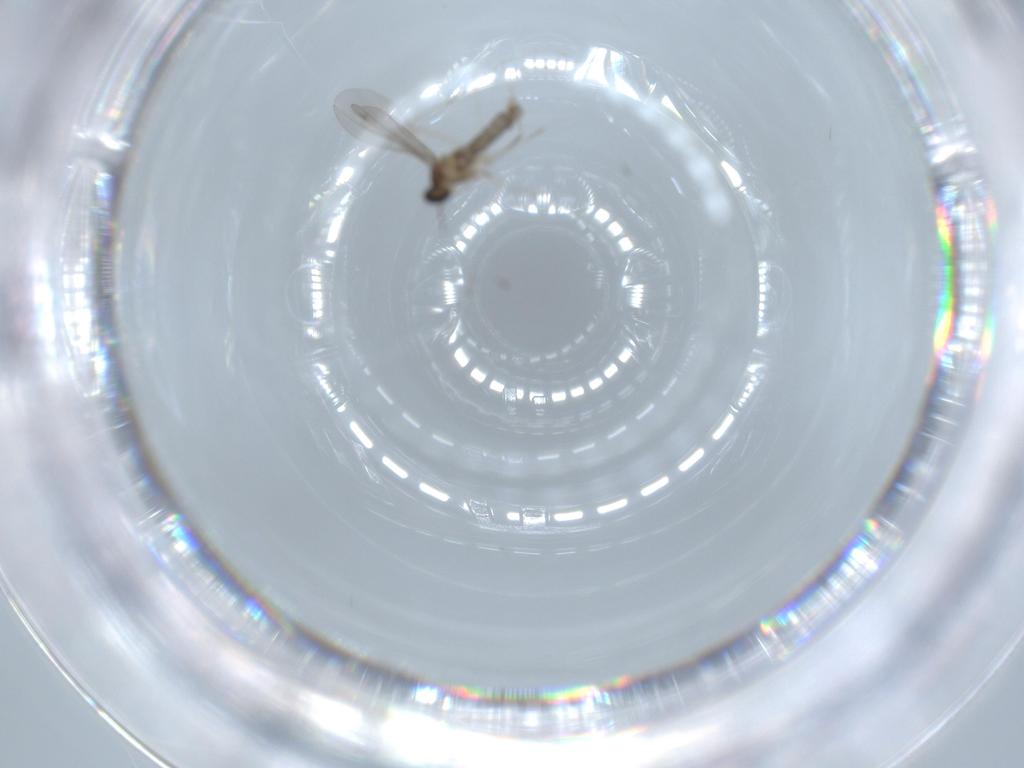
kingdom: Animalia
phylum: Arthropoda
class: Insecta
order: Diptera
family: Cecidomyiidae
